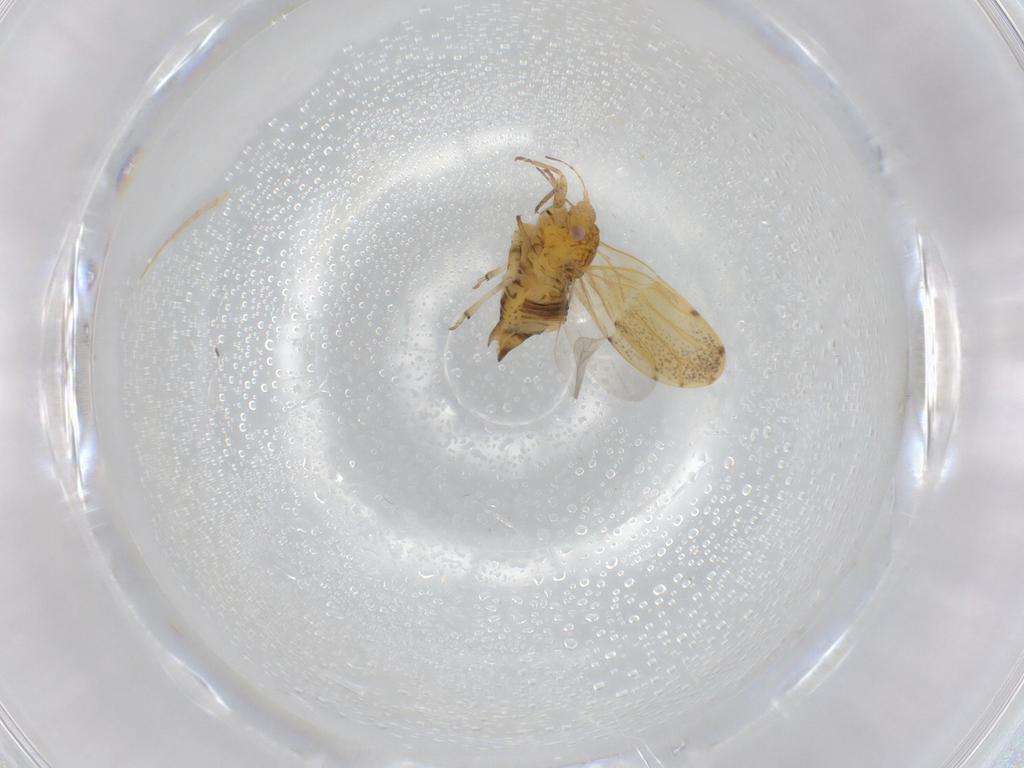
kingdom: Animalia
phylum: Arthropoda
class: Insecta
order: Hemiptera
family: Liviidae
